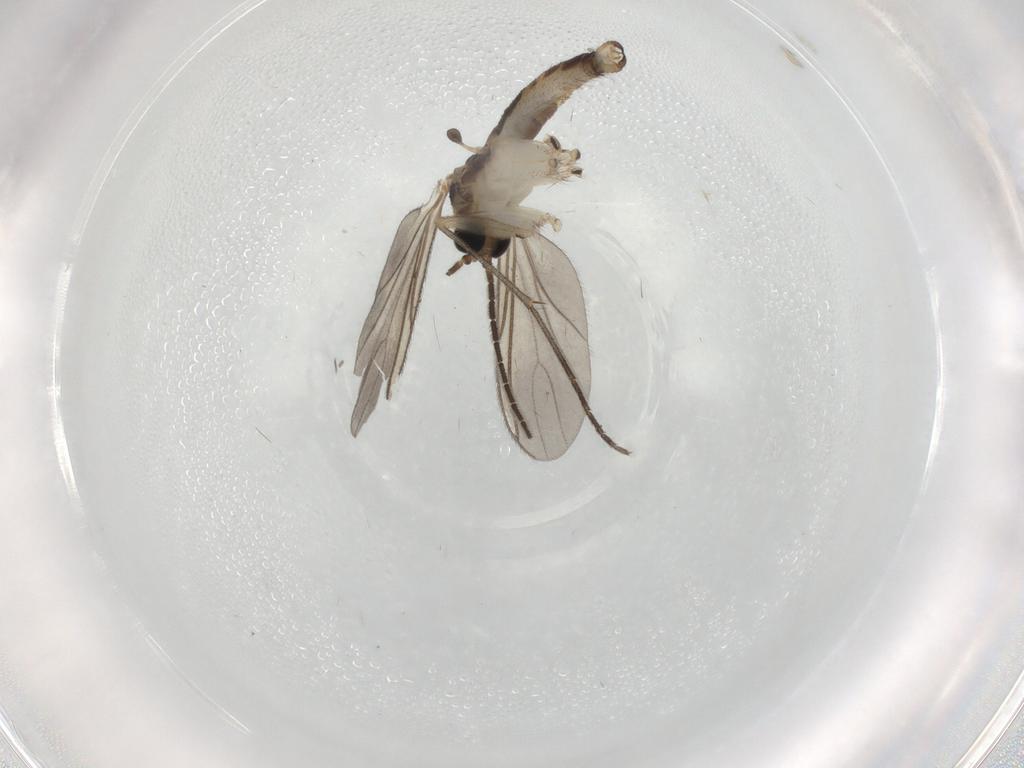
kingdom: Animalia
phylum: Arthropoda
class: Insecta
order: Diptera
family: Sciaridae
